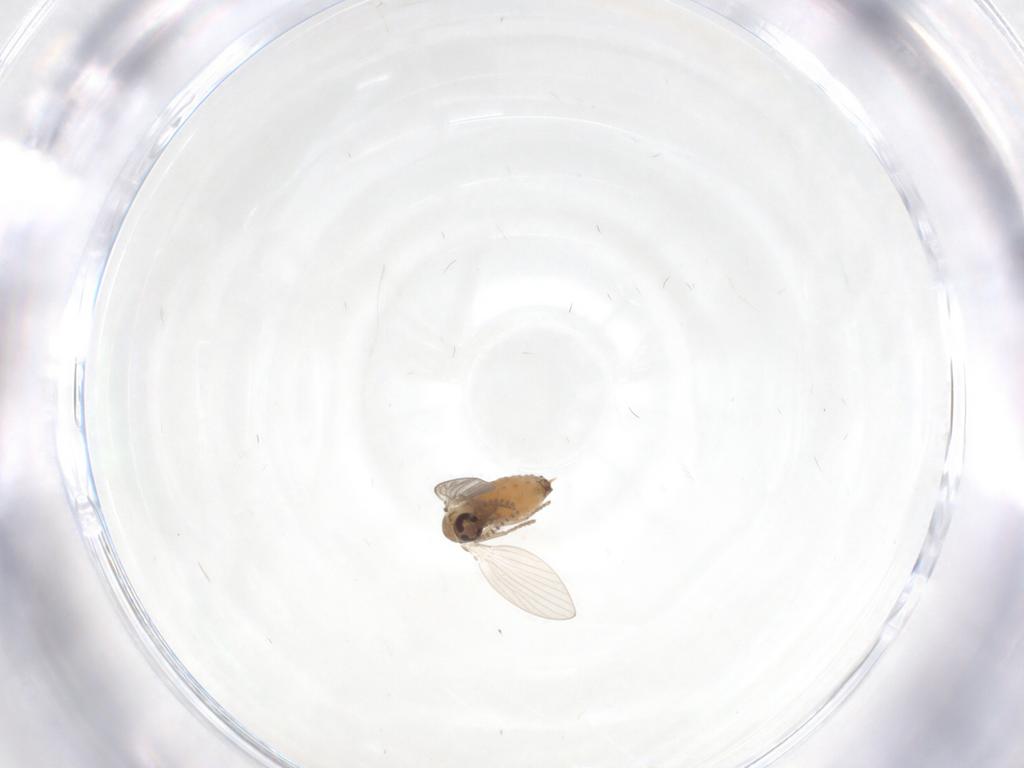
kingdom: Animalia
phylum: Arthropoda
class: Insecta
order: Diptera
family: Psychodidae
